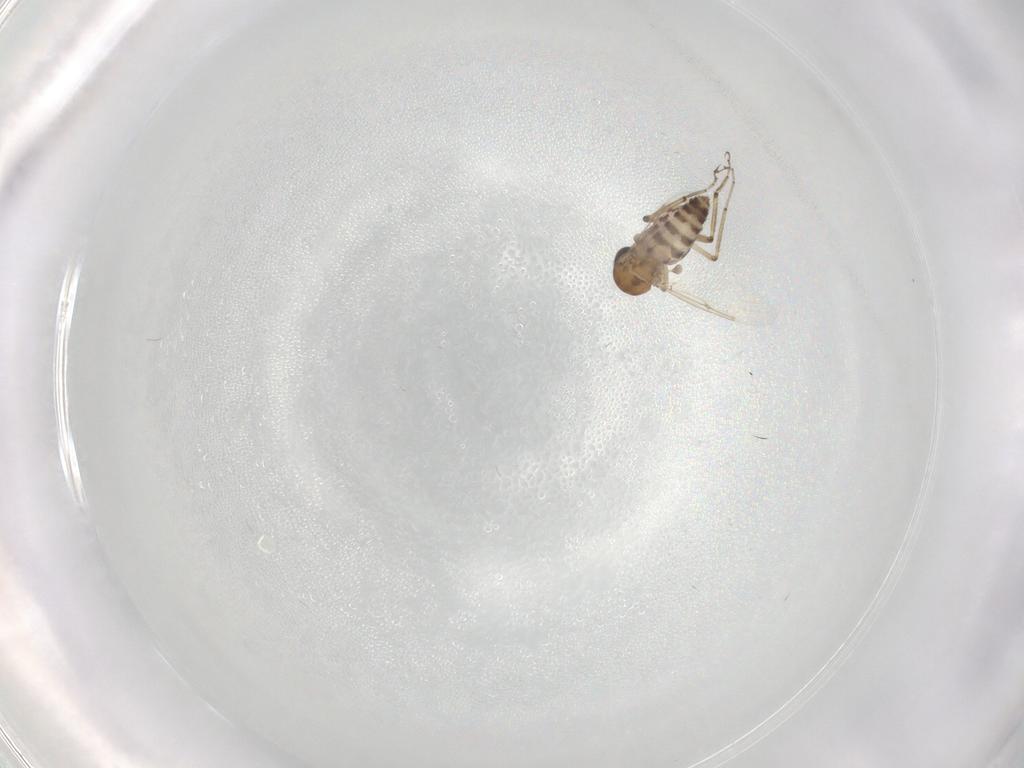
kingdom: Animalia
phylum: Arthropoda
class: Insecta
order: Diptera
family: Ceratopogonidae
